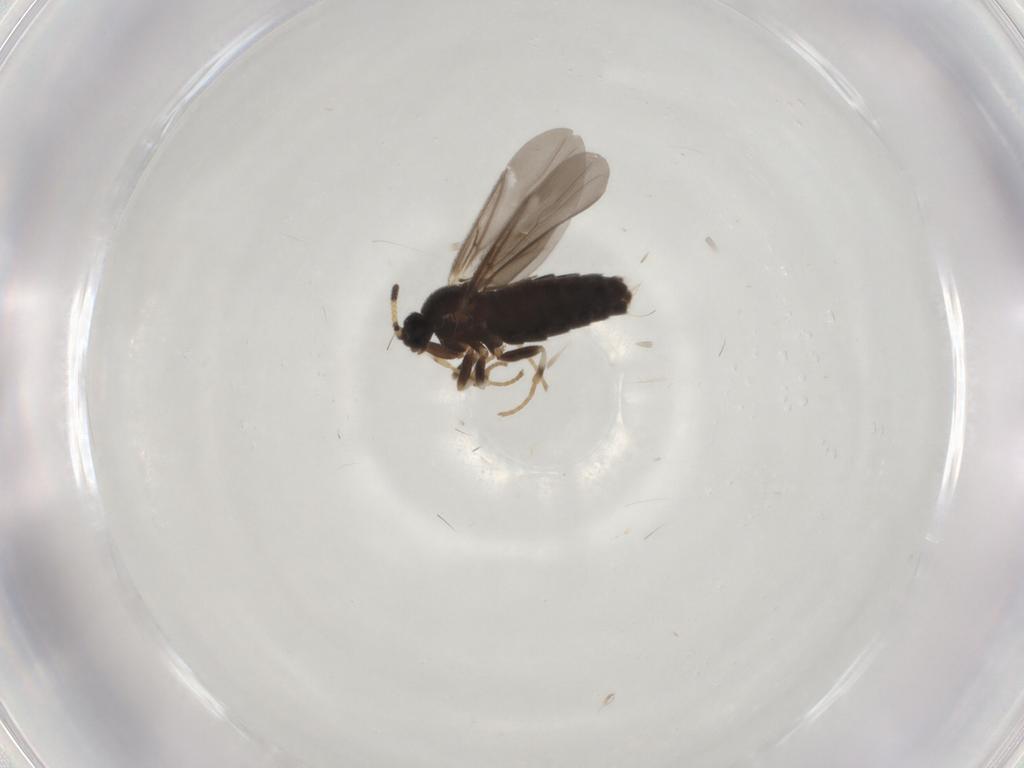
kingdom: Animalia
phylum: Arthropoda
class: Insecta
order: Diptera
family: Scatopsidae
